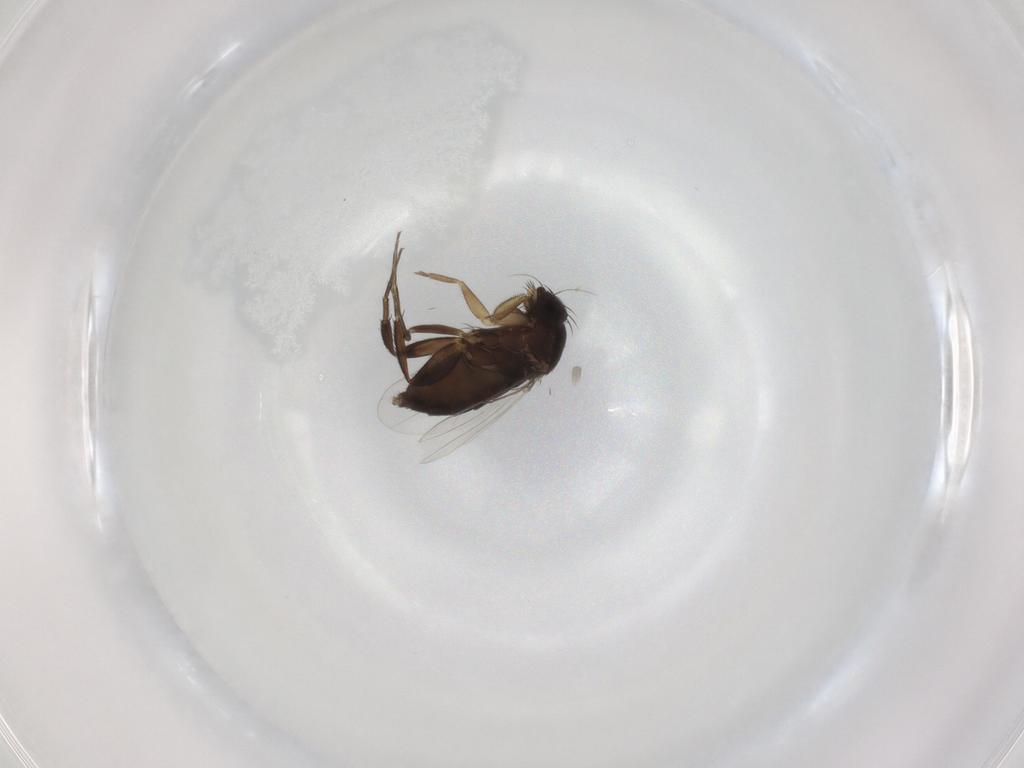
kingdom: Animalia
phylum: Arthropoda
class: Insecta
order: Diptera
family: Phoridae
